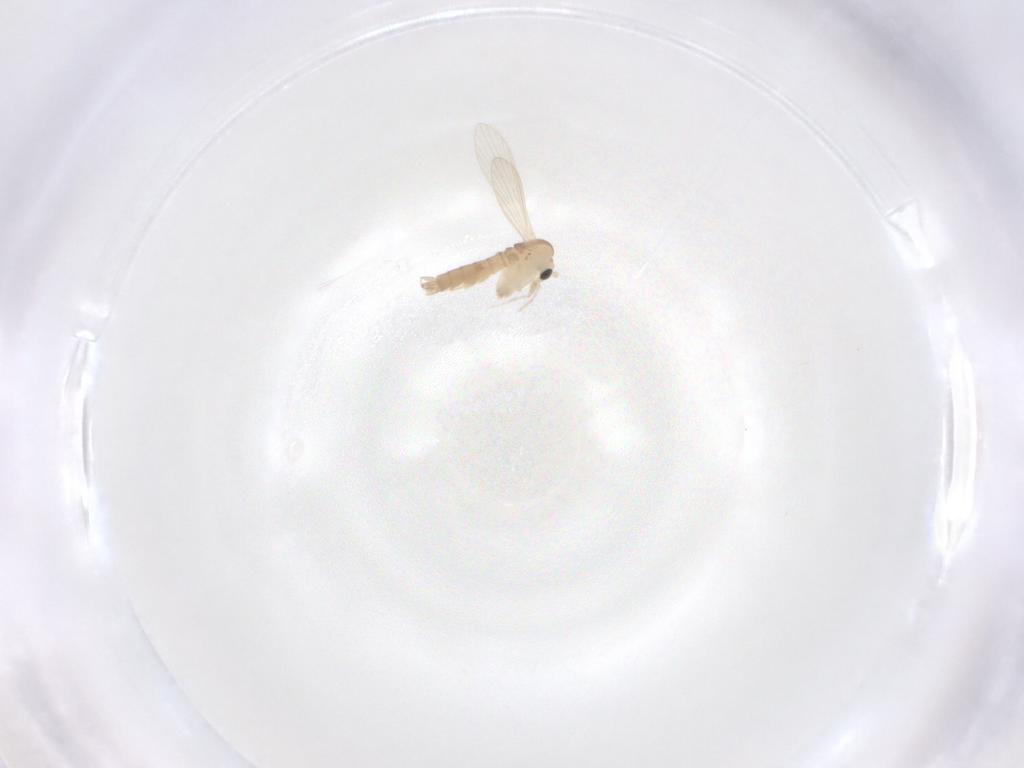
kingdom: Animalia
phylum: Arthropoda
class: Insecta
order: Diptera
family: Psychodidae
